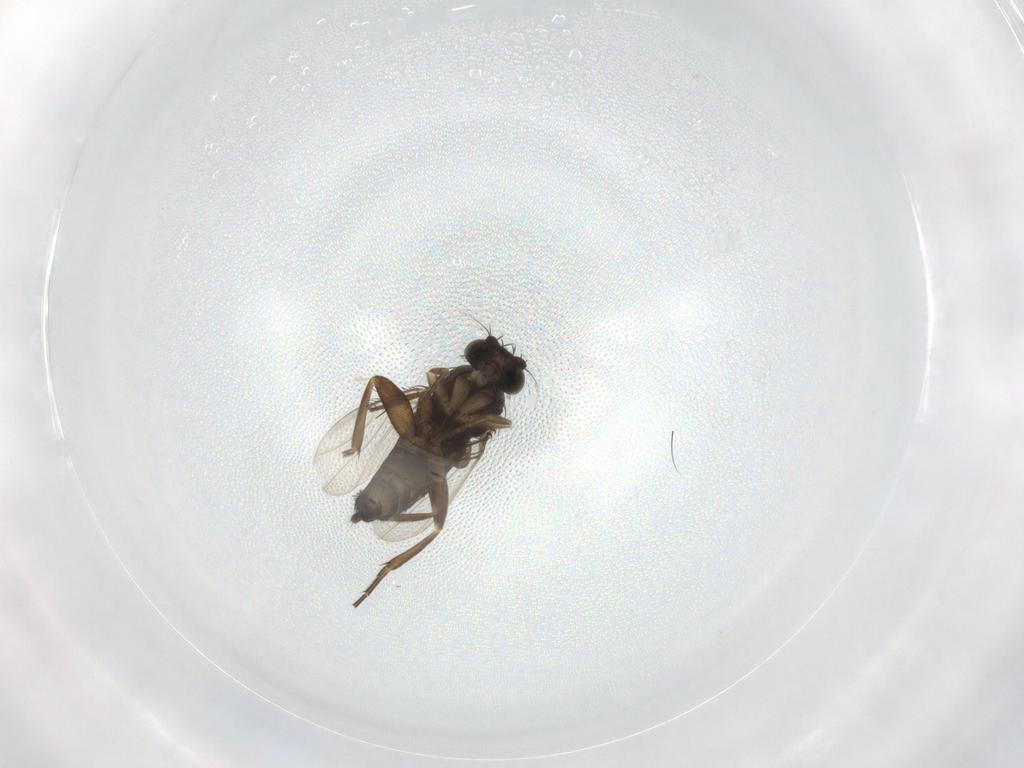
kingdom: Animalia
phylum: Arthropoda
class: Insecta
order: Diptera
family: Phoridae
